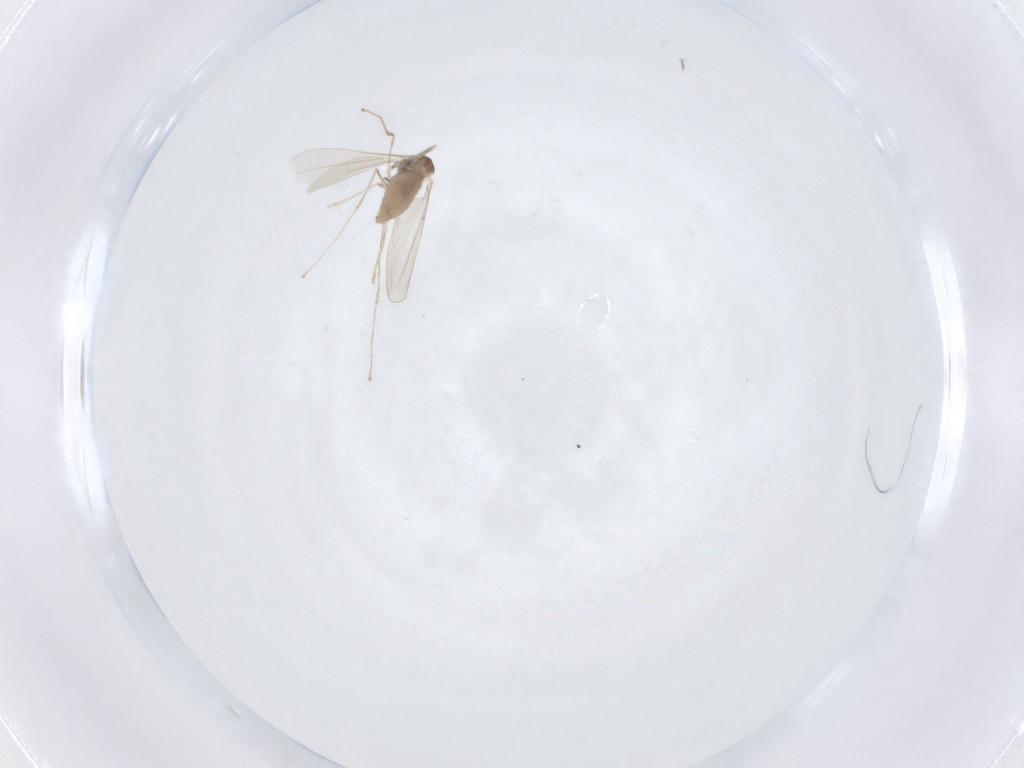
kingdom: Animalia
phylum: Arthropoda
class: Insecta
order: Diptera
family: Cecidomyiidae
